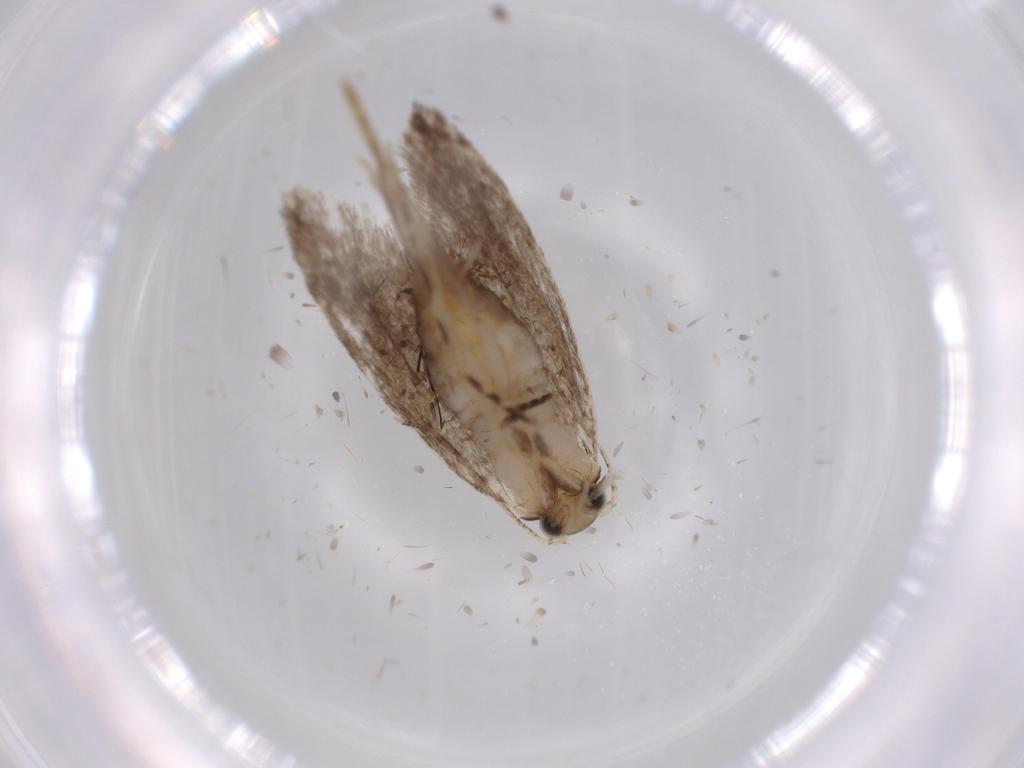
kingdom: Animalia
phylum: Arthropoda
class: Insecta
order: Lepidoptera
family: Tineidae
